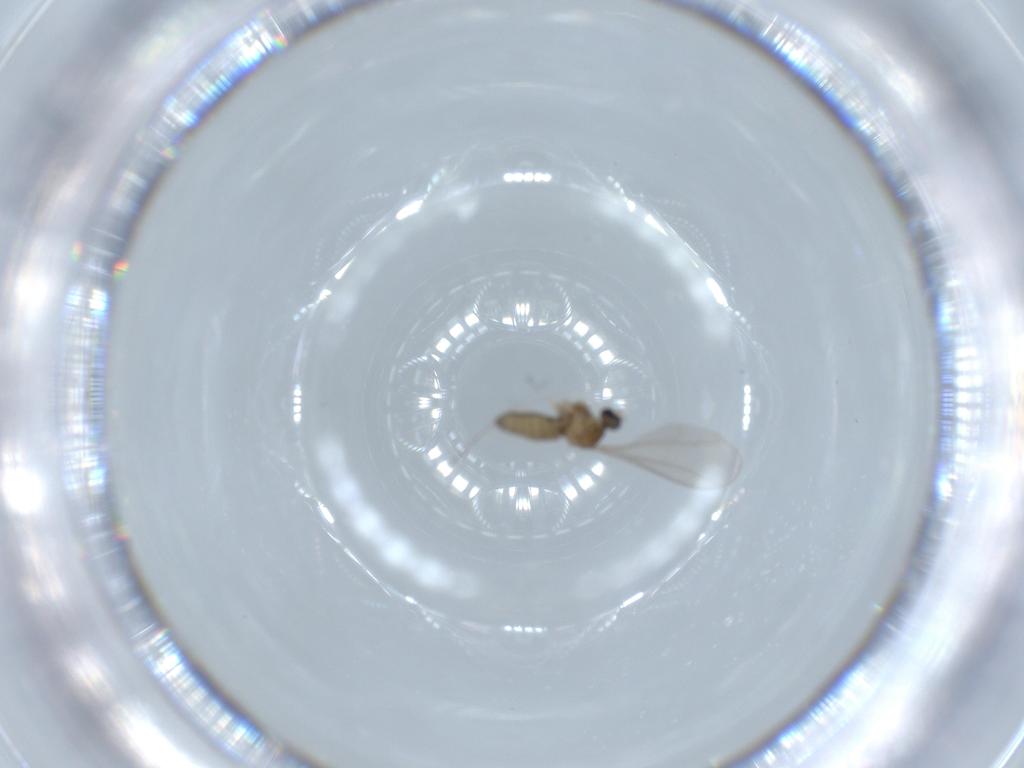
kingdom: Animalia
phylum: Arthropoda
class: Insecta
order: Diptera
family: Cecidomyiidae
